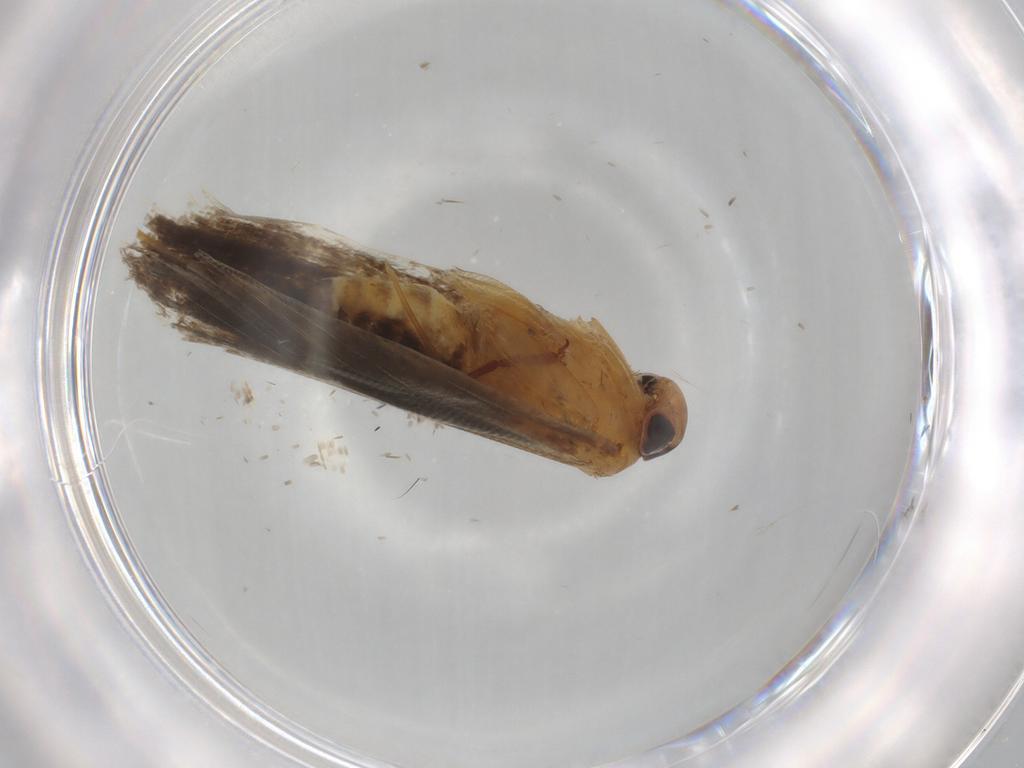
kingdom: Animalia
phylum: Arthropoda
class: Insecta
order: Lepidoptera
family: Gelechiidae
